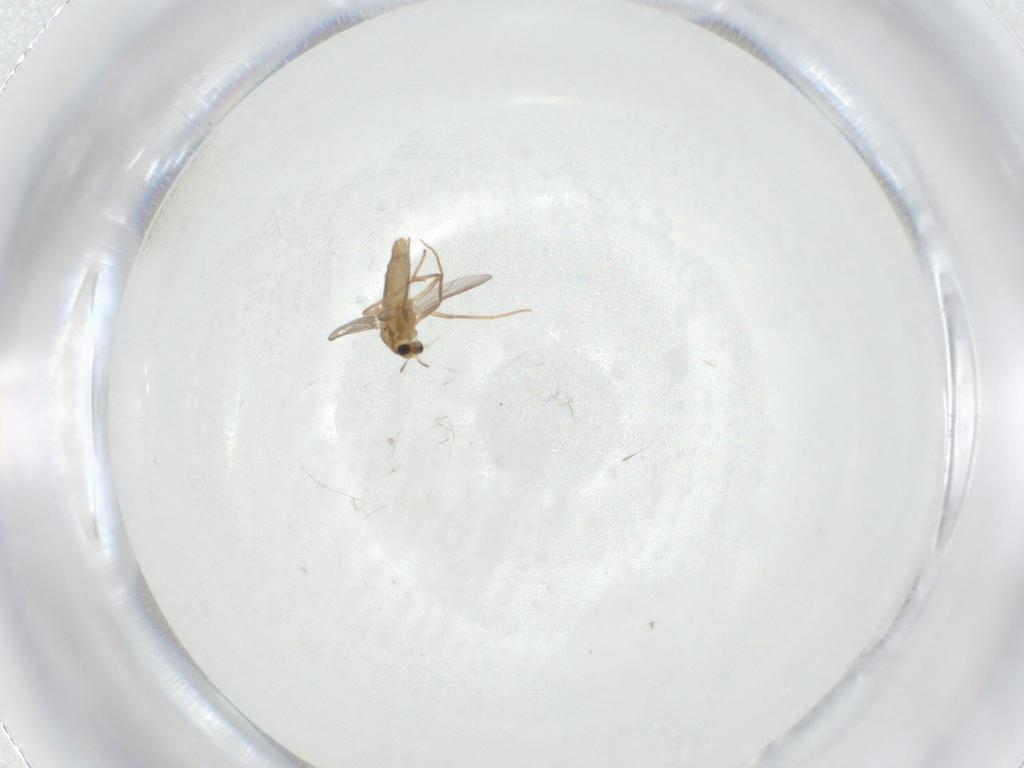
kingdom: Animalia
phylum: Arthropoda
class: Insecta
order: Diptera
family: Chironomidae
